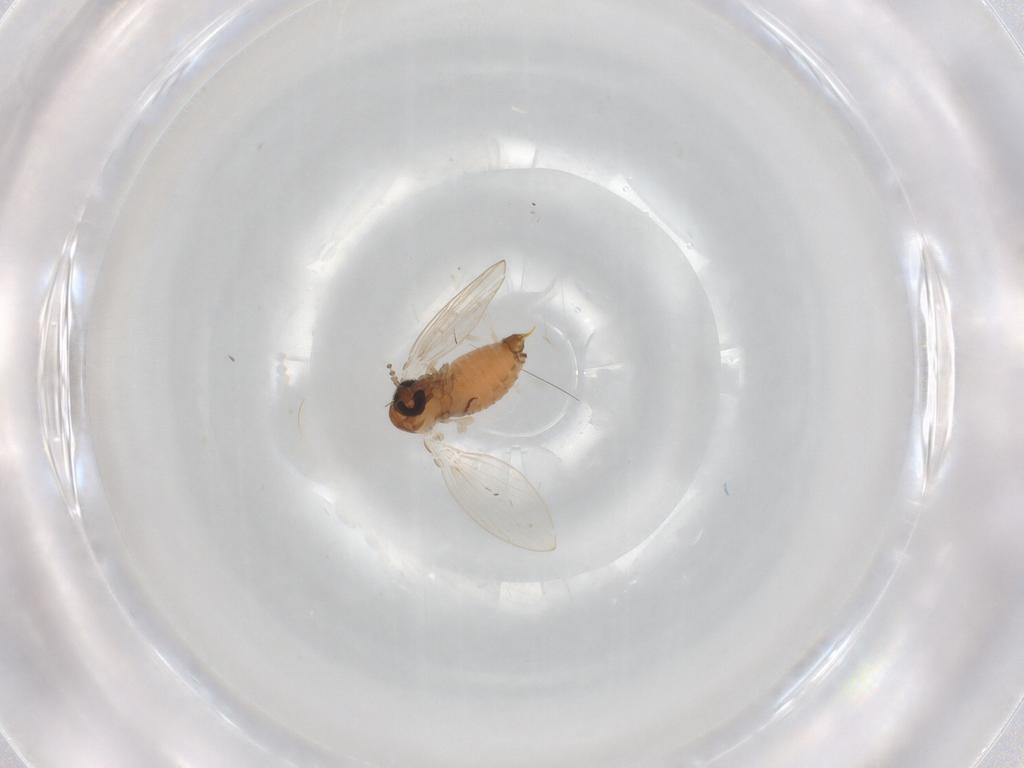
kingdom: Animalia
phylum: Arthropoda
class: Insecta
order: Diptera
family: Psychodidae
